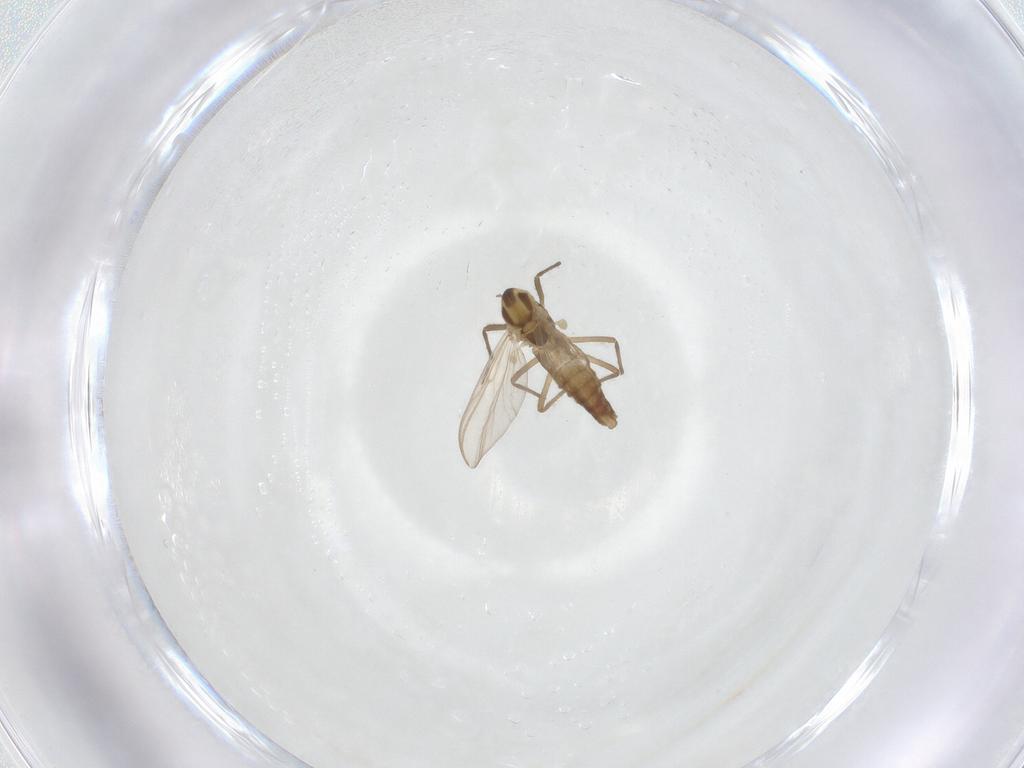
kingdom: Animalia
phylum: Arthropoda
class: Insecta
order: Diptera
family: Chironomidae
